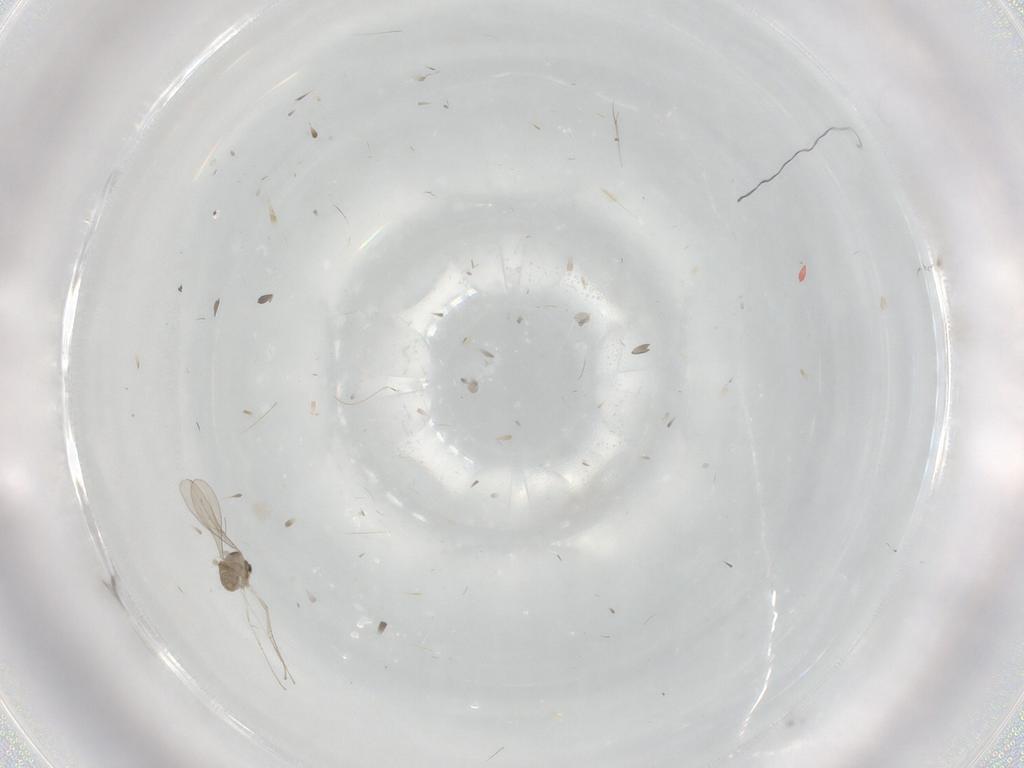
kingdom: Animalia
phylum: Arthropoda
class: Insecta
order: Diptera
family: Cecidomyiidae
